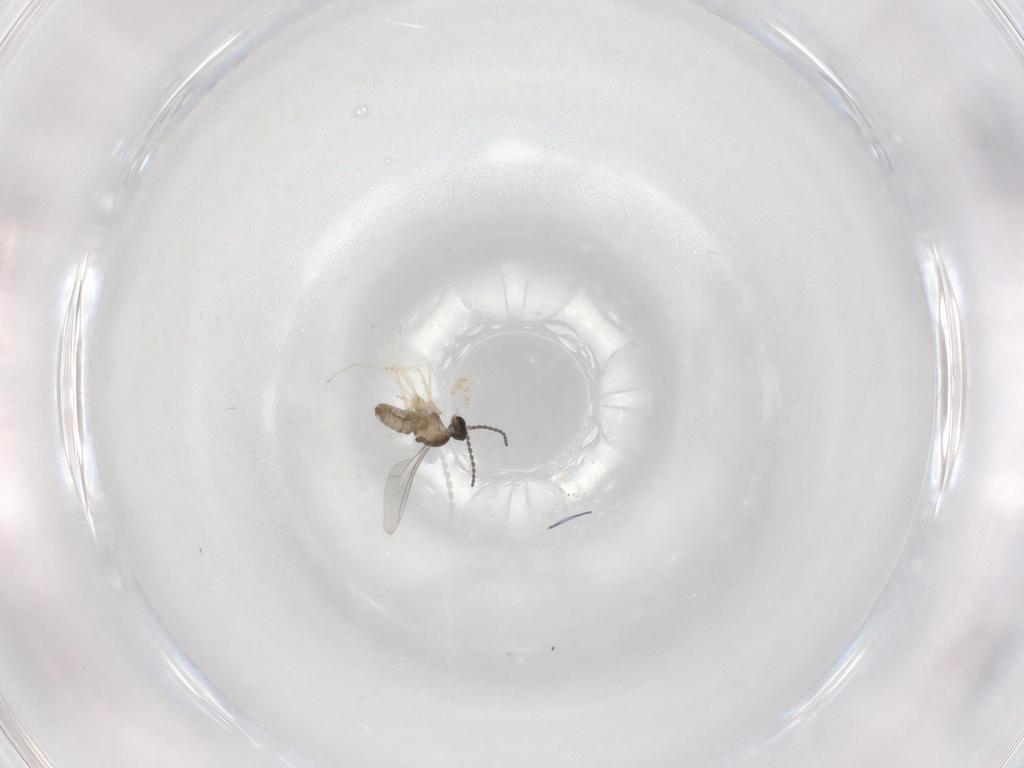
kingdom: Animalia
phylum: Arthropoda
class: Insecta
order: Diptera
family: Cecidomyiidae
